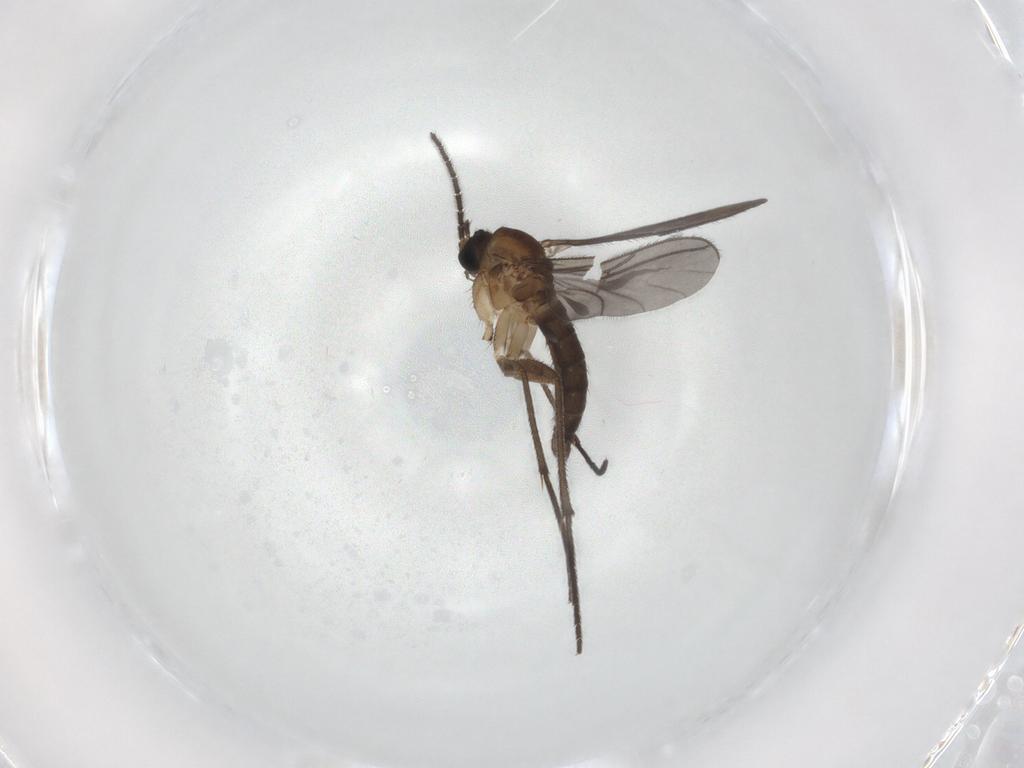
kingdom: Animalia
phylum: Arthropoda
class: Insecta
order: Diptera
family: Sciaridae
